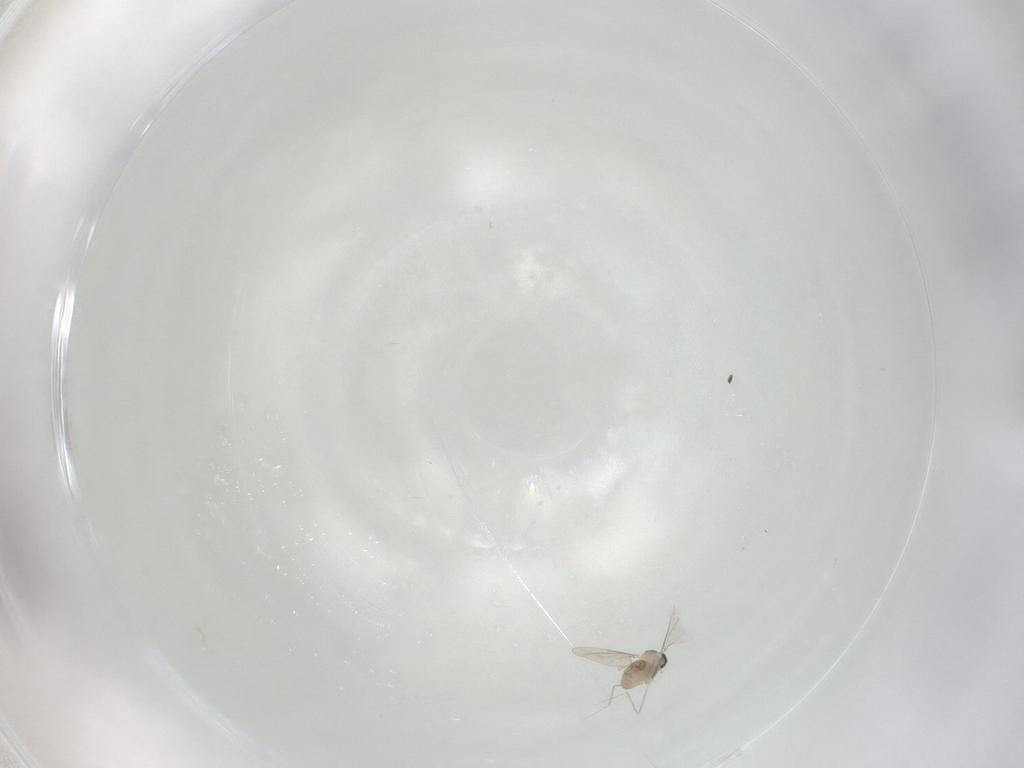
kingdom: Animalia
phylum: Arthropoda
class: Insecta
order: Diptera
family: Cecidomyiidae
